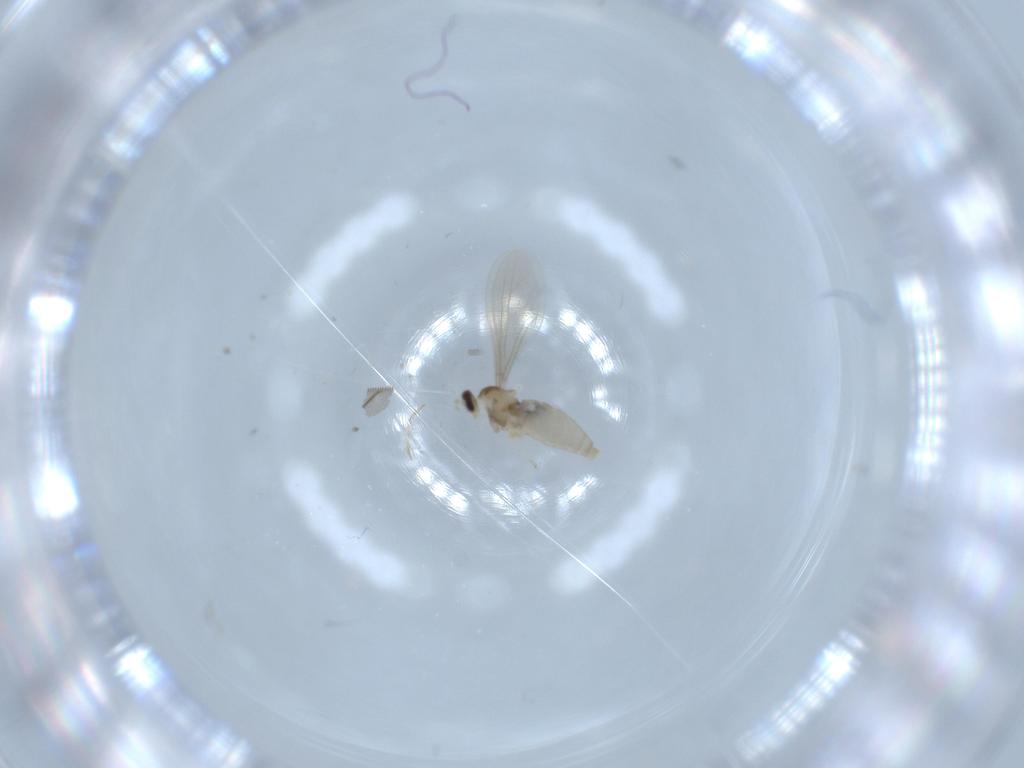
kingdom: Animalia
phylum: Arthropoda
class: Insecta
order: Diptera
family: Cecidomyiidae
